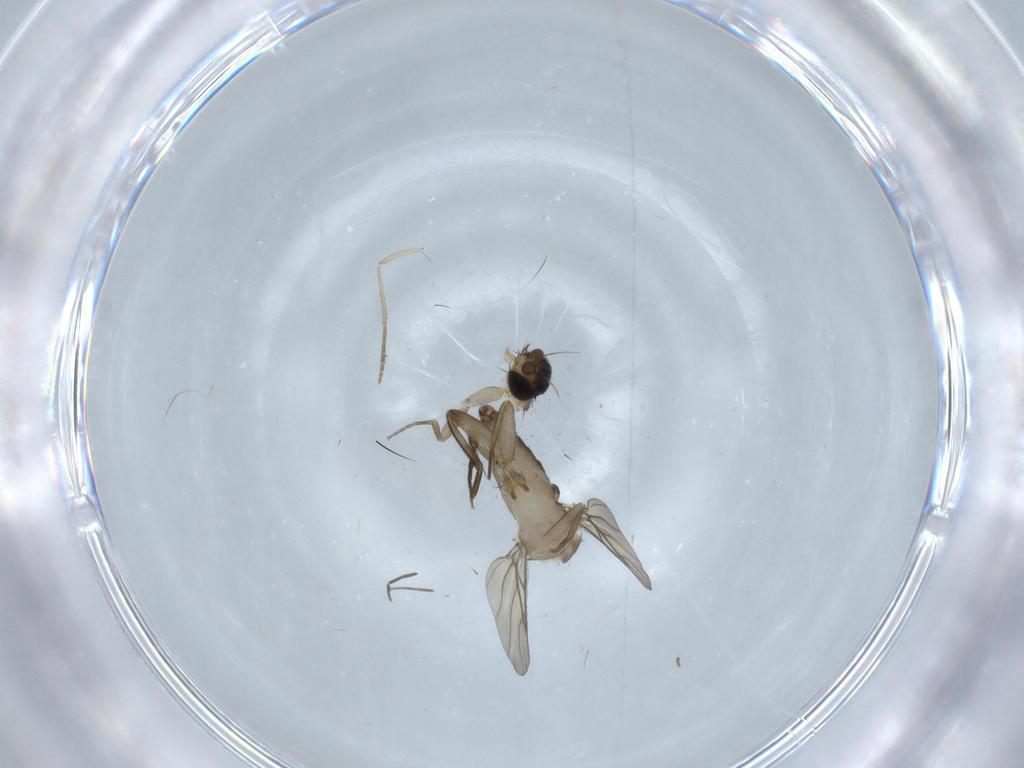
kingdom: Animalia
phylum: Arthropoda
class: Insecta
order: Diptera
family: Phoridae
